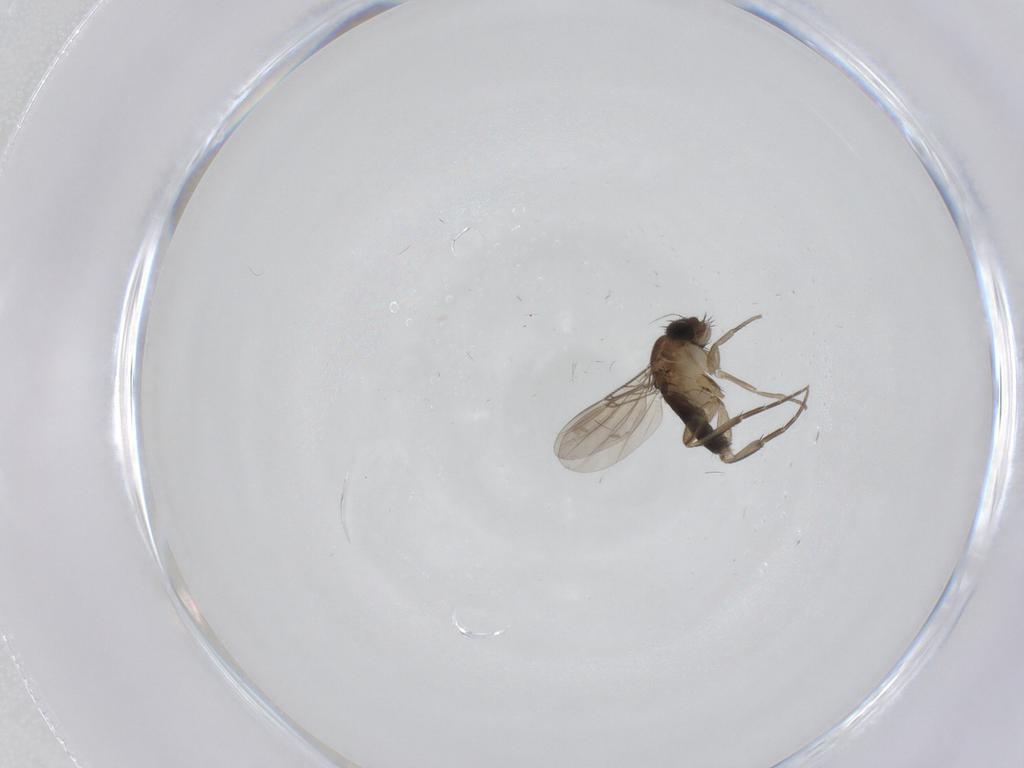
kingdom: Animalia
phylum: Arthropoda
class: Insecta
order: Diptera
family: Phoridae
